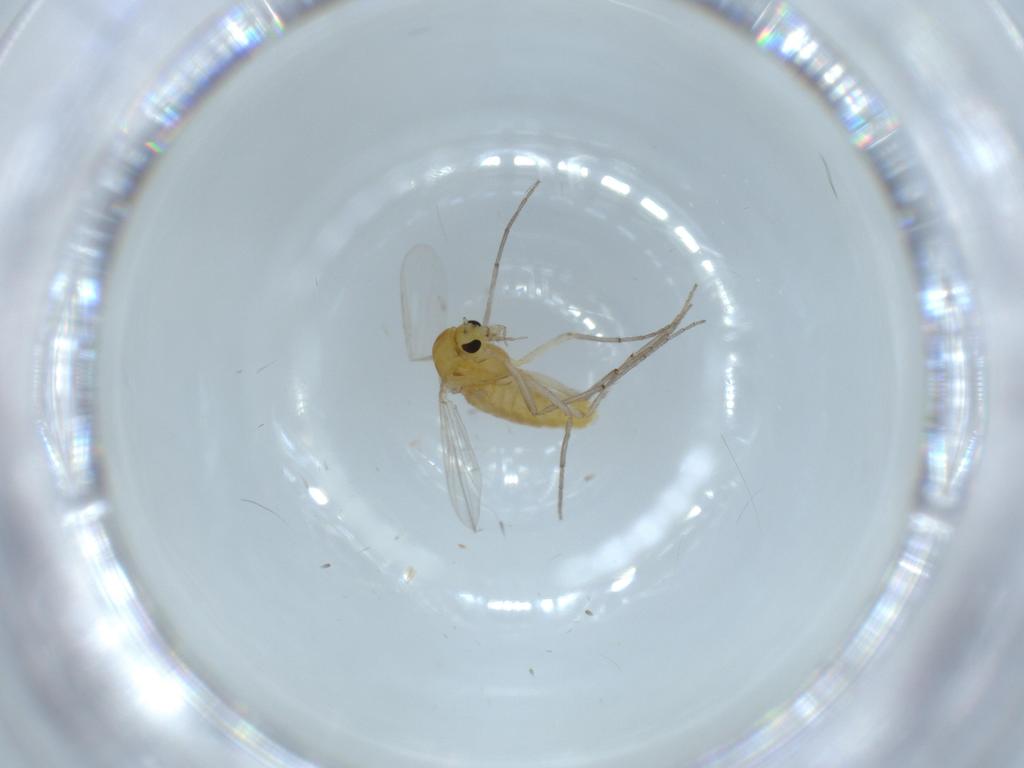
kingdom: Animalia
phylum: Arthropoda
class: Insecta
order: Diptera
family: Chironomidae
